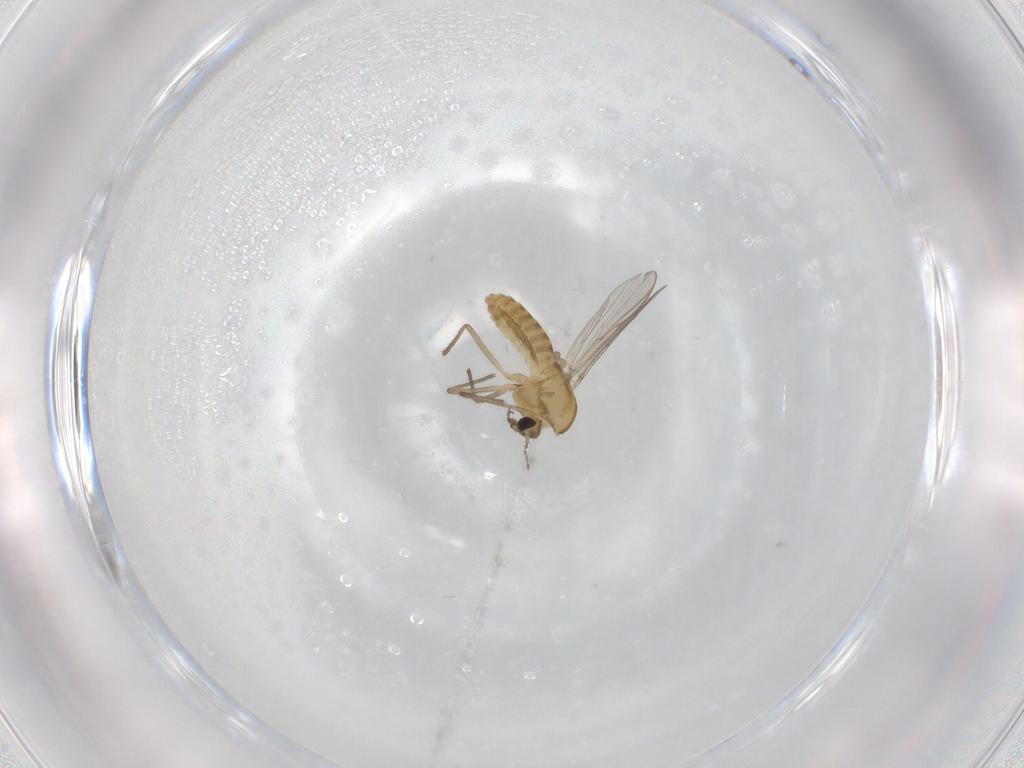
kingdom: Animalia
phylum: Arthropoda
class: Insecta
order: Diptera
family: Chironomidae
